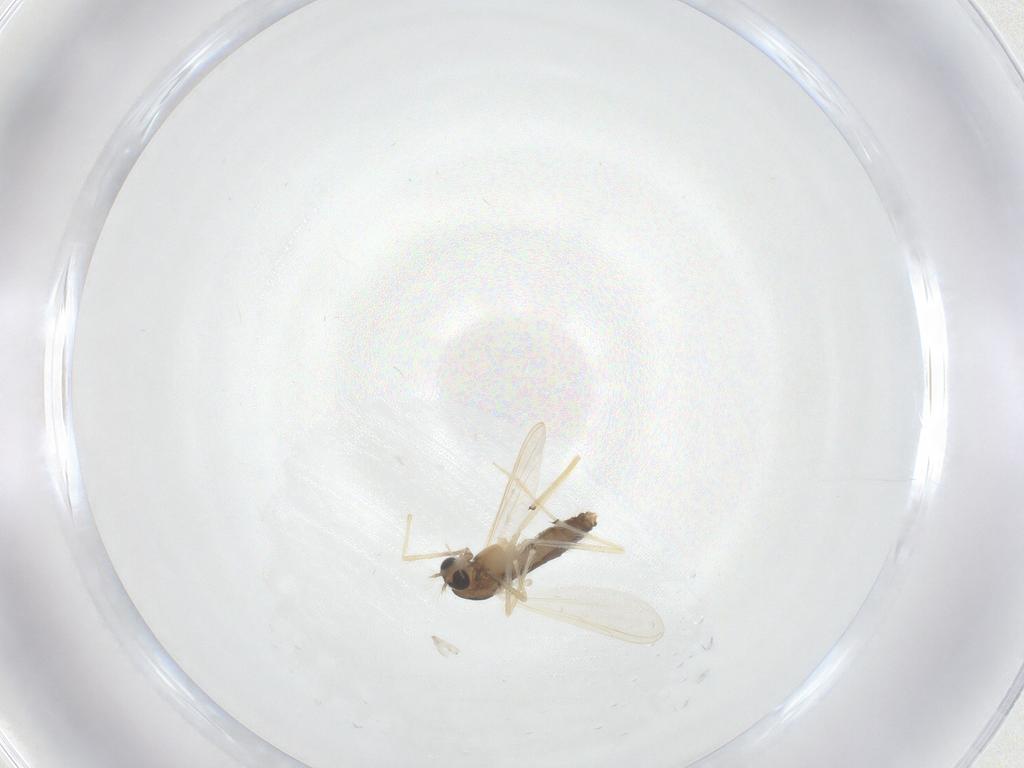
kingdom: Animalia
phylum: Arthropoda
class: Insecta
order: Diptera
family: Chironomidae
